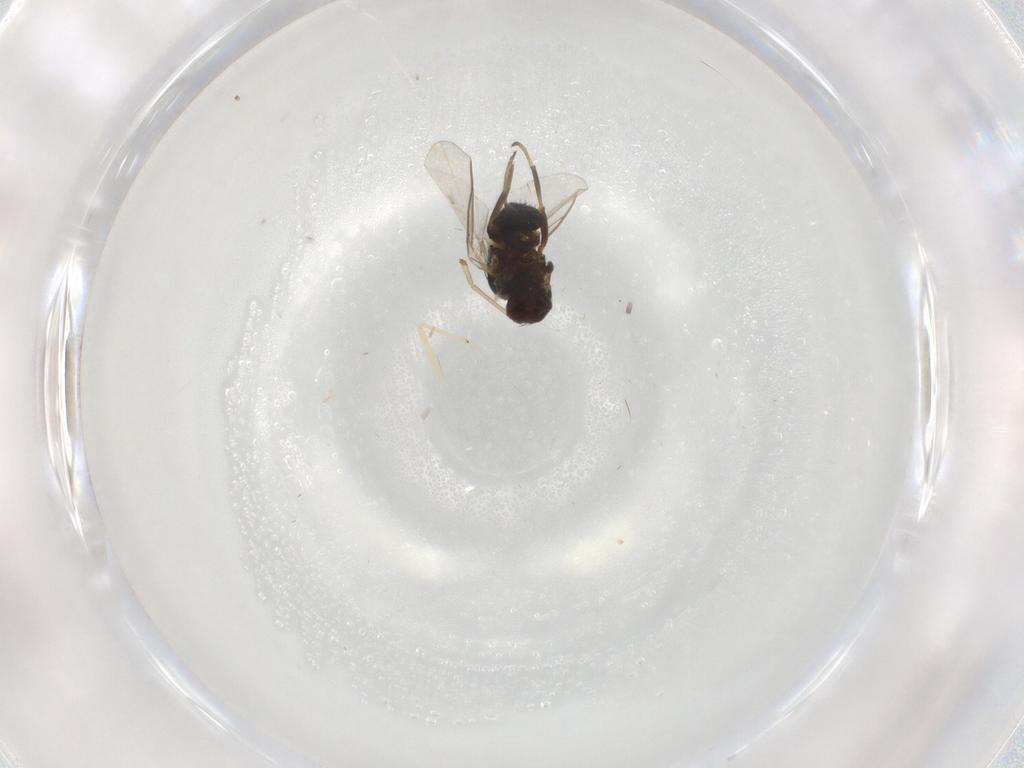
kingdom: Animalia
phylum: Arthropoda
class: Insecta
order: Diptera
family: Agromyzidae
